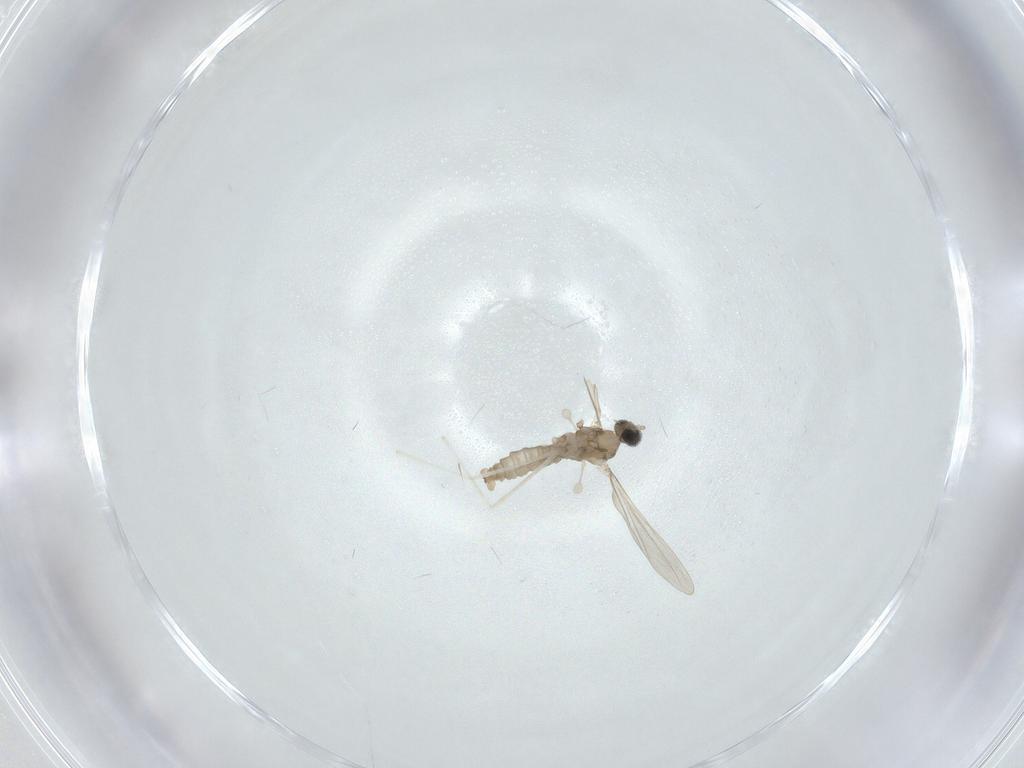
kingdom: Animalia
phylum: Arthropoda
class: Insecta
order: Diptera
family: Cecidomyiidae
